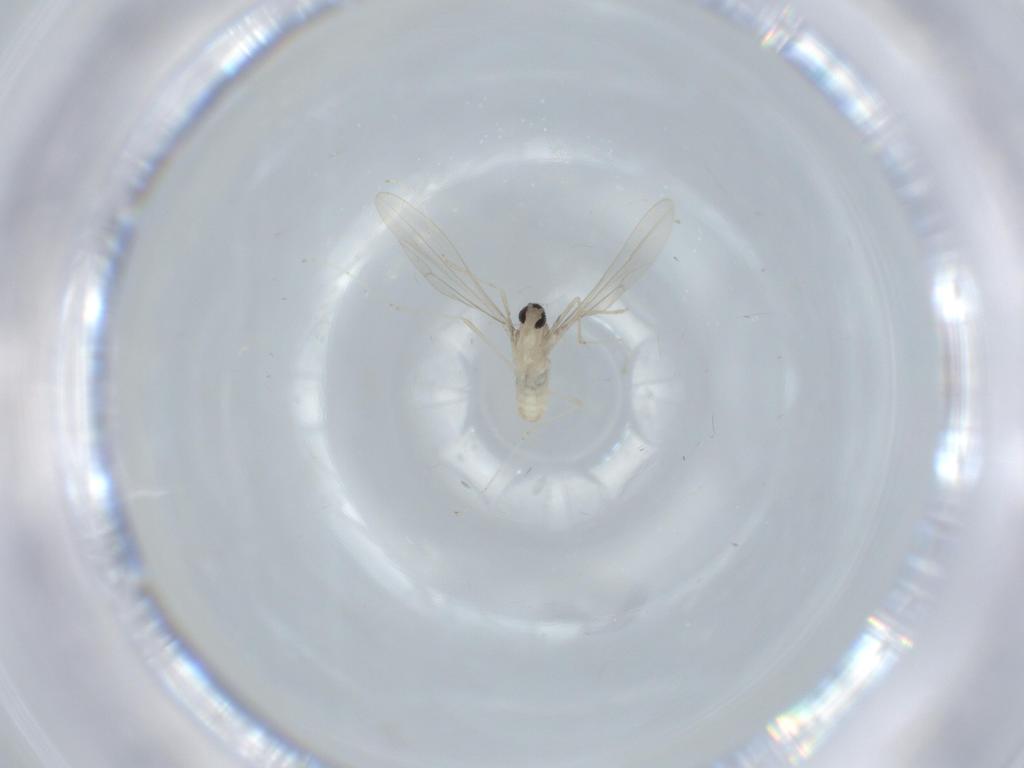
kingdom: Animalia
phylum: Arthropoda
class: Insecta
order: Diptera
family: Cecidomyiidae
